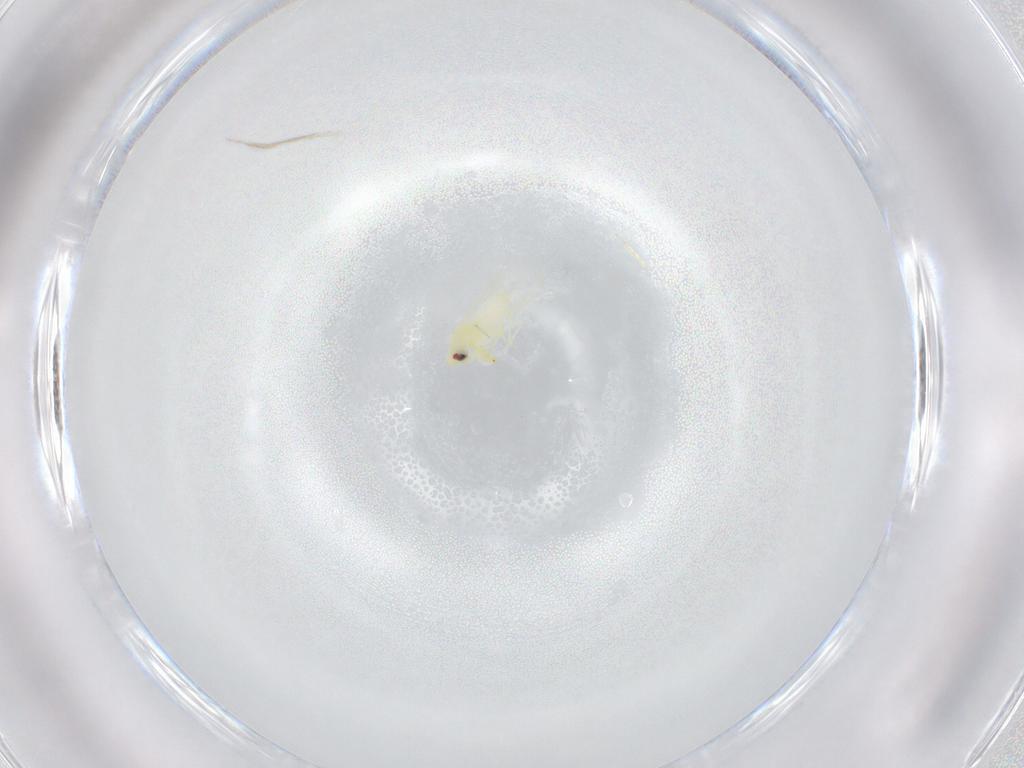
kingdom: Animalia
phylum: Arthropoda
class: Insecta
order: Hemiptera
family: Aleyrodidae
